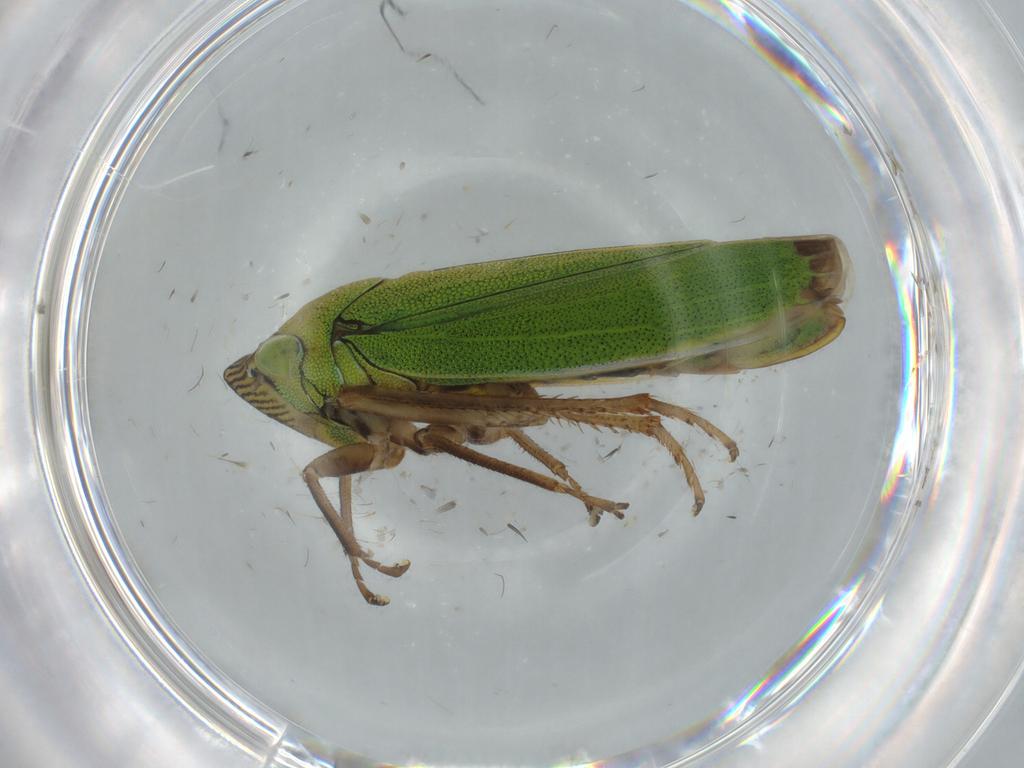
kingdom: Animalia
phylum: Arthropoda
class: Insecta
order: Hemiptera
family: Cicadellidae
